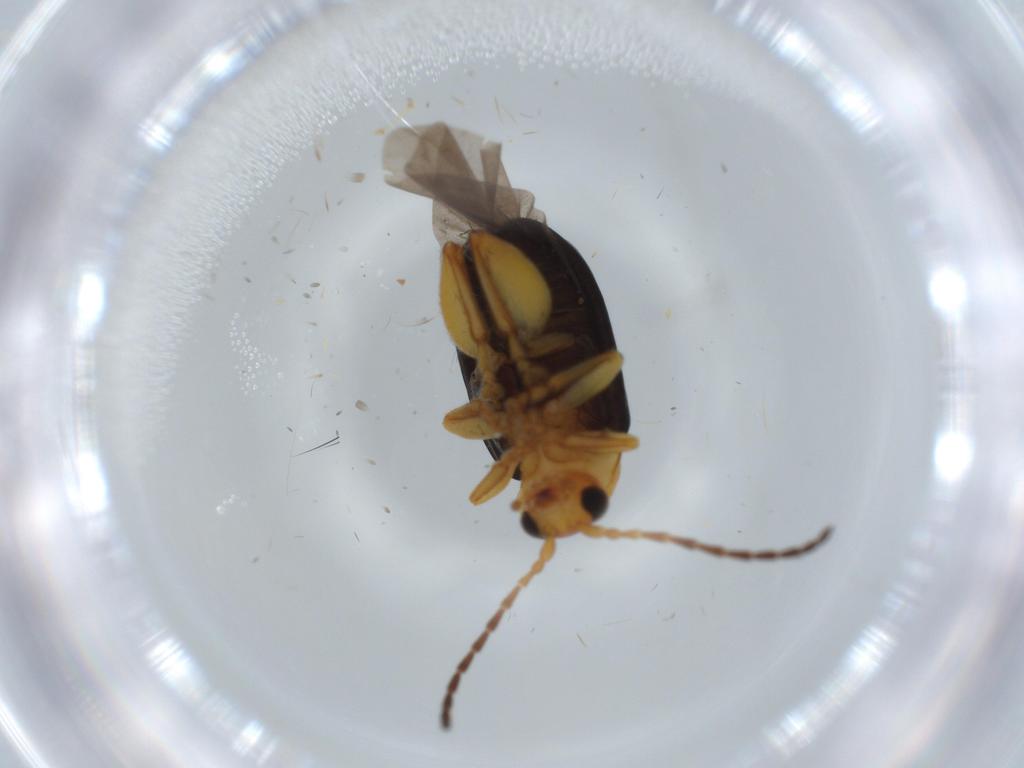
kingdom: Animalia
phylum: Arthropoda
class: Insecta
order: Coleoptera
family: Chrysomelidae
